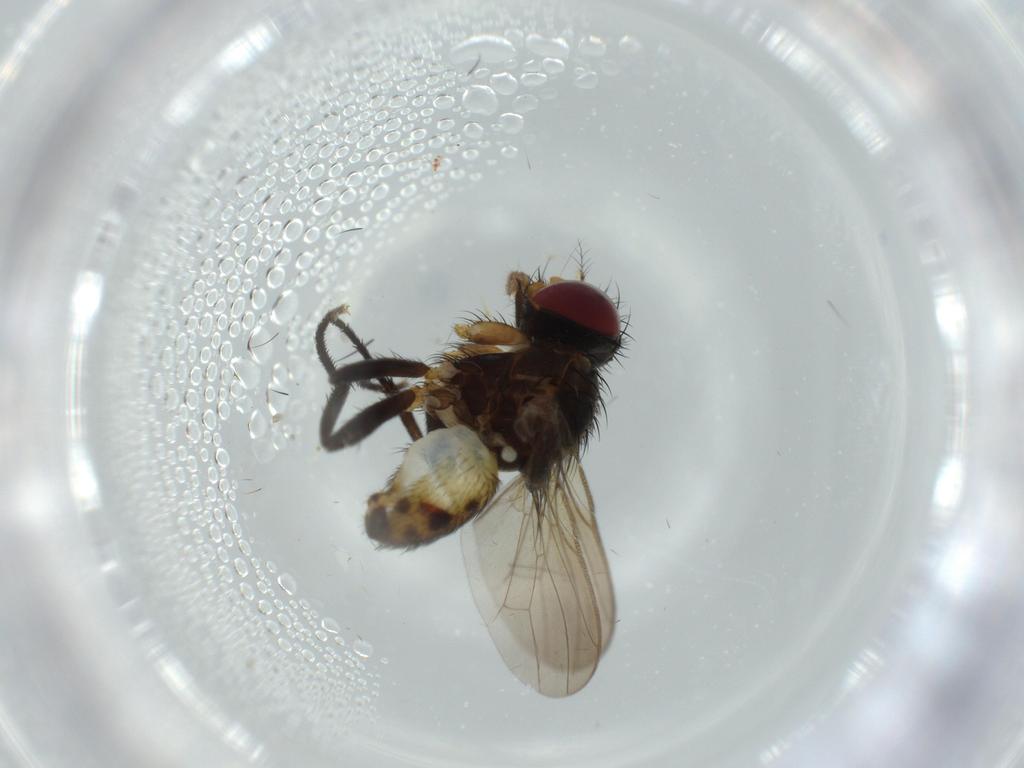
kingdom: Animalia
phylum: Arthropoda
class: Insecta
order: Diptera
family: Anthomyiidae
